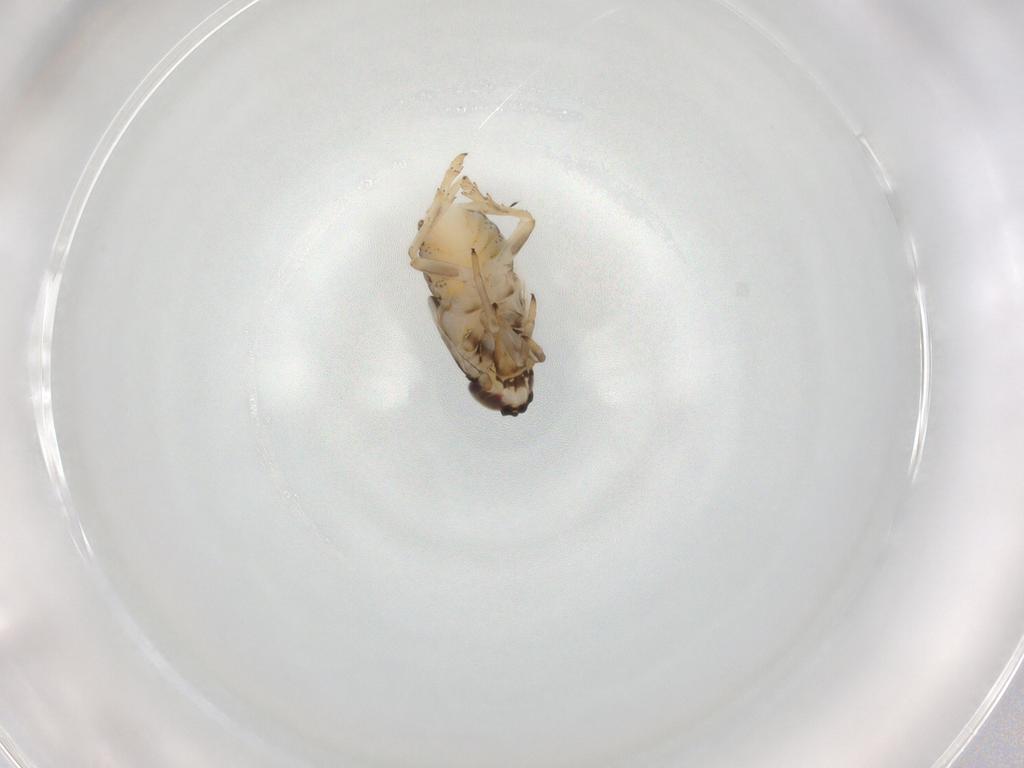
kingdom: Animalia
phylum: Arthropoda
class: Insecta
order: Hemiptera
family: Delphacidae
